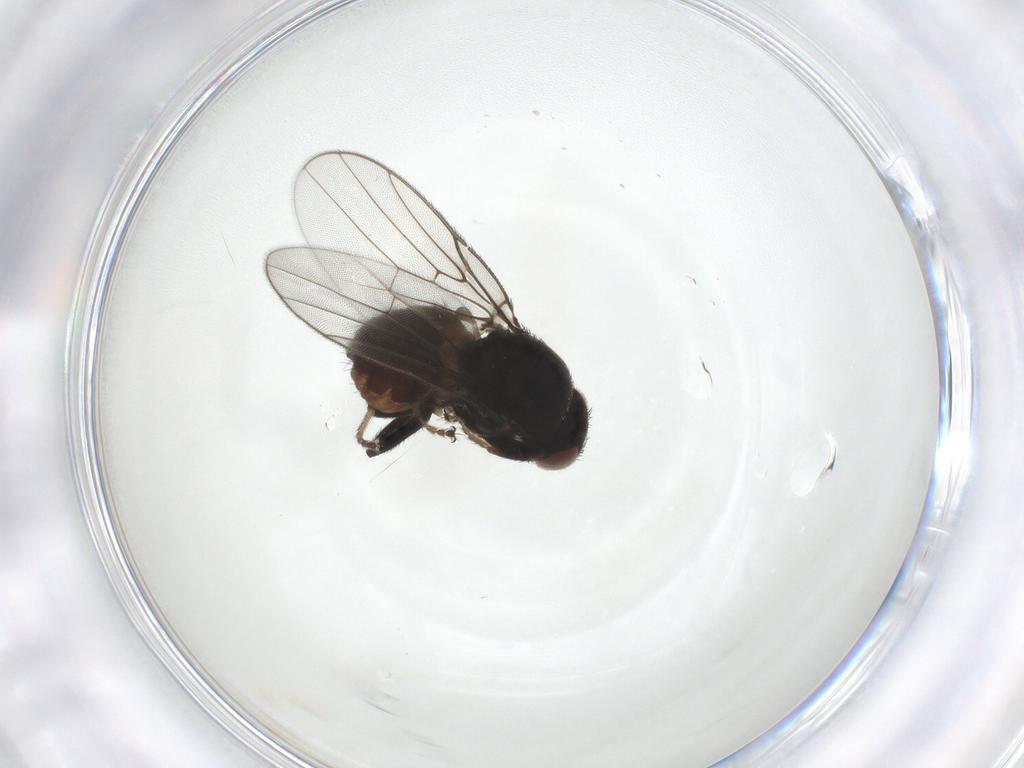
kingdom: Animalia
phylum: Arthropoda
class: Insecta
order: Diptera
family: Chloropidae
